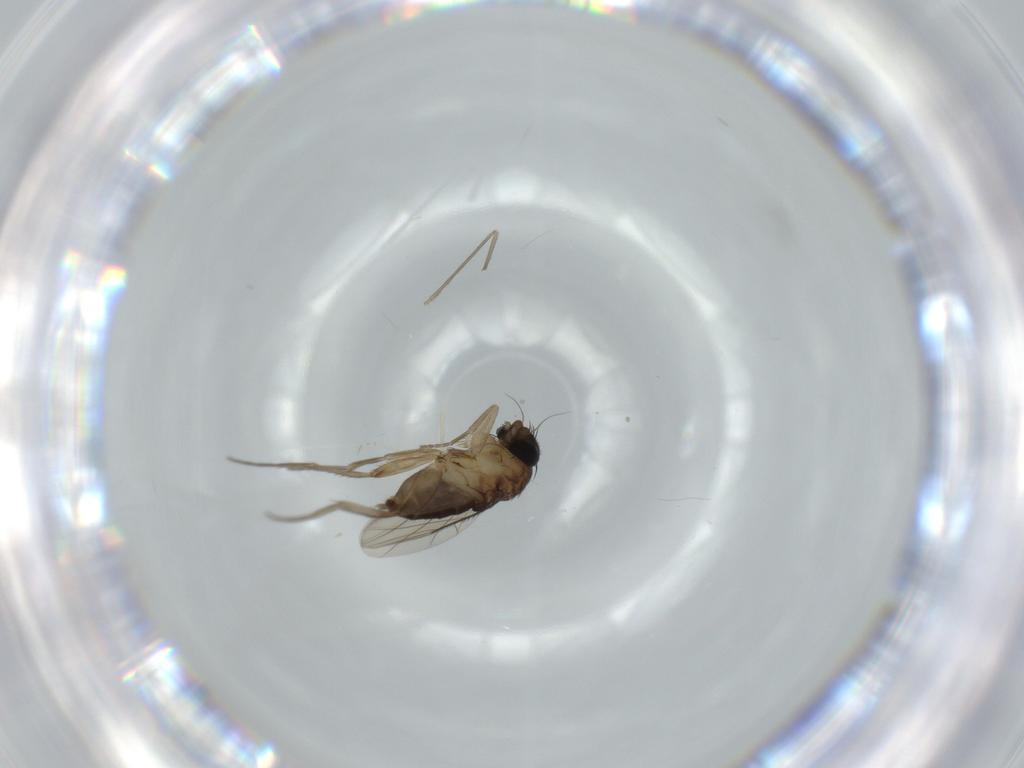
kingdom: Animalia
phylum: Arthropoda
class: Insecta
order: Diptera
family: Phoridae
